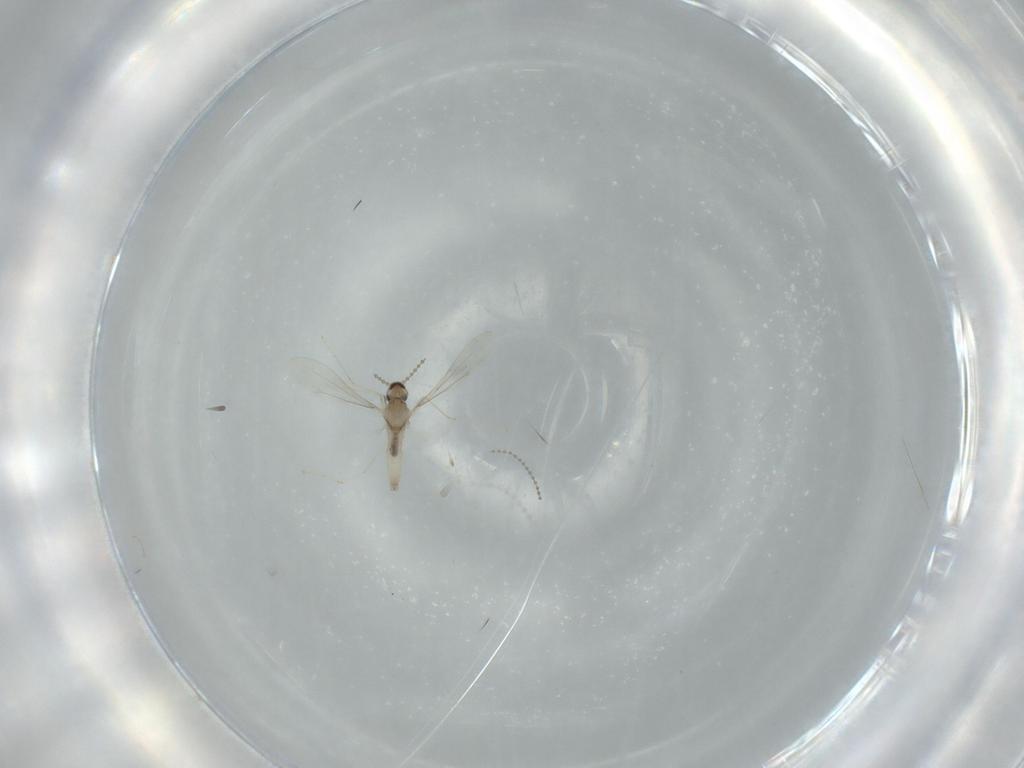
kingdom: Animalia
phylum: Arthropoda
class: Insecta
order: Diptera
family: Cecidomyiidae
